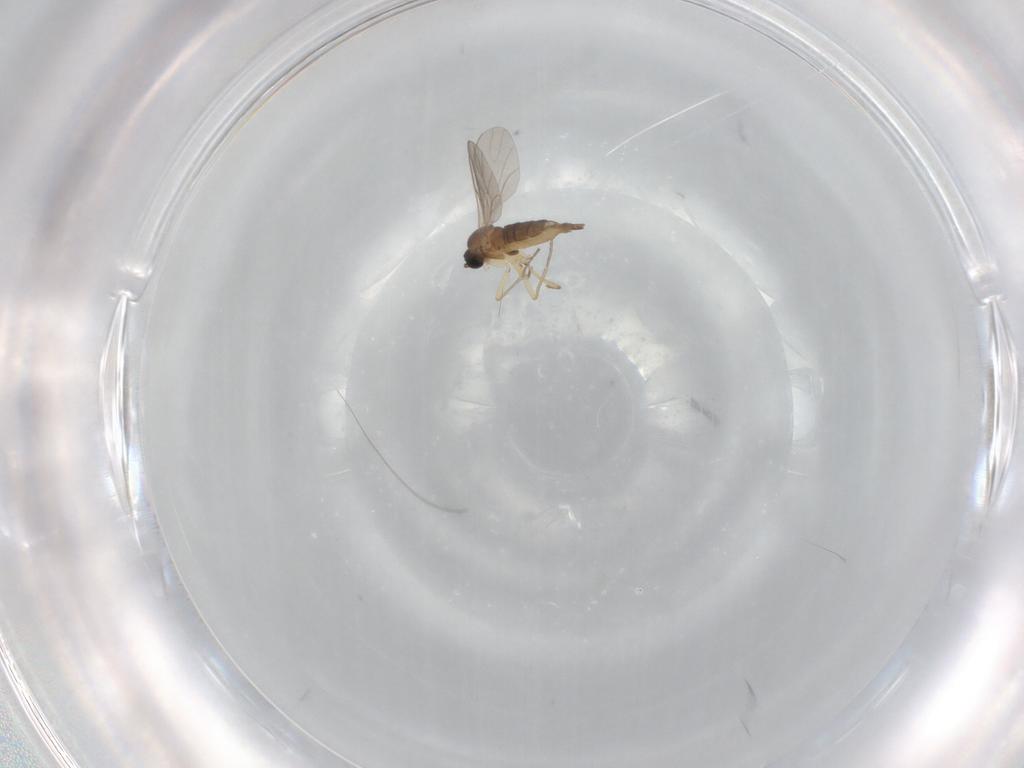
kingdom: Animalia
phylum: Arthropoda
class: Insecta
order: Diptera
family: Sciaridae
